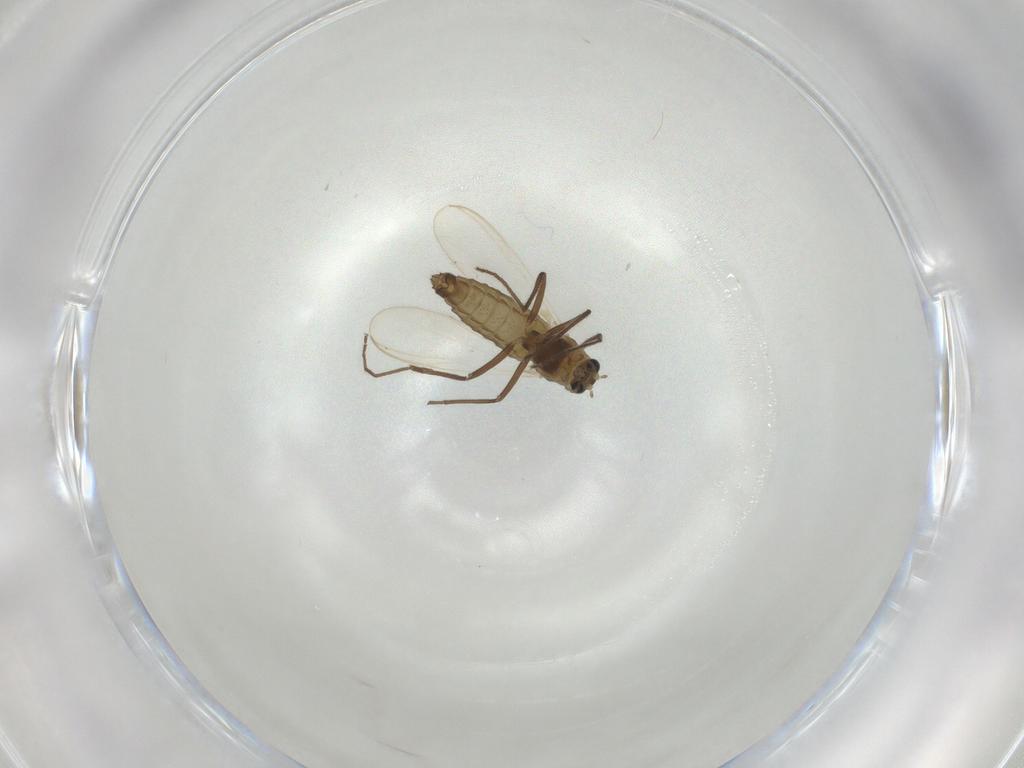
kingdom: Animalia
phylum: Arthropoda
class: Insecta
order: Diptera
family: Chironomidae
